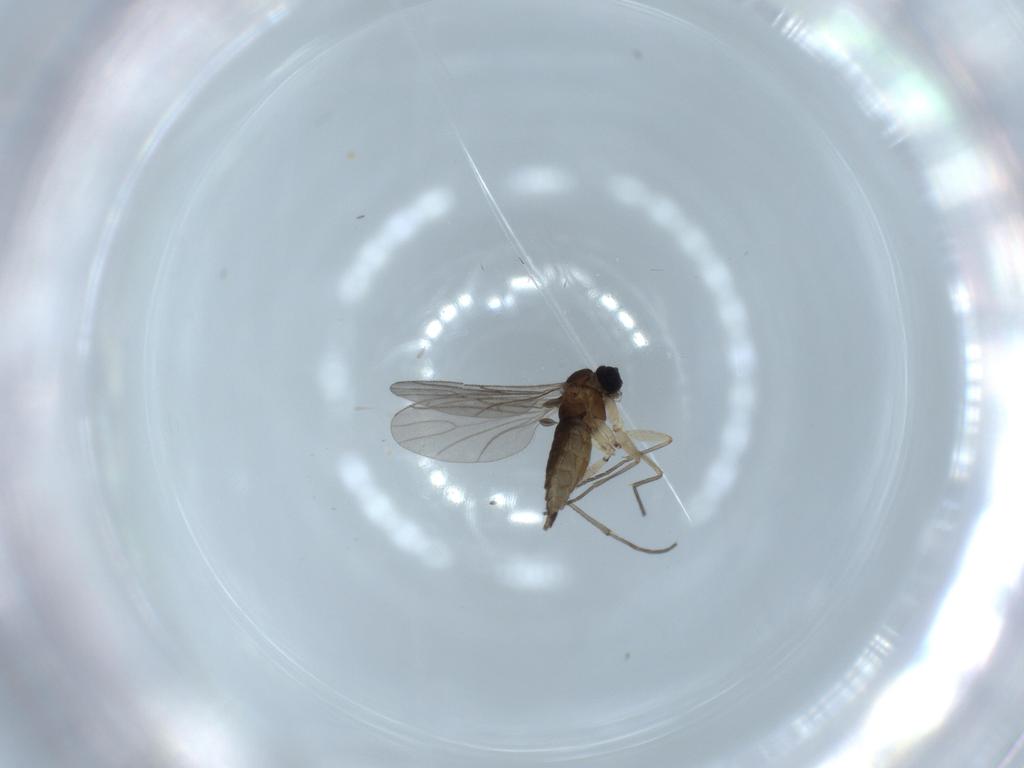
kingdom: Animalia
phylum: Arthropoda
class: Insecta
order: Diptera
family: Sciaridae
